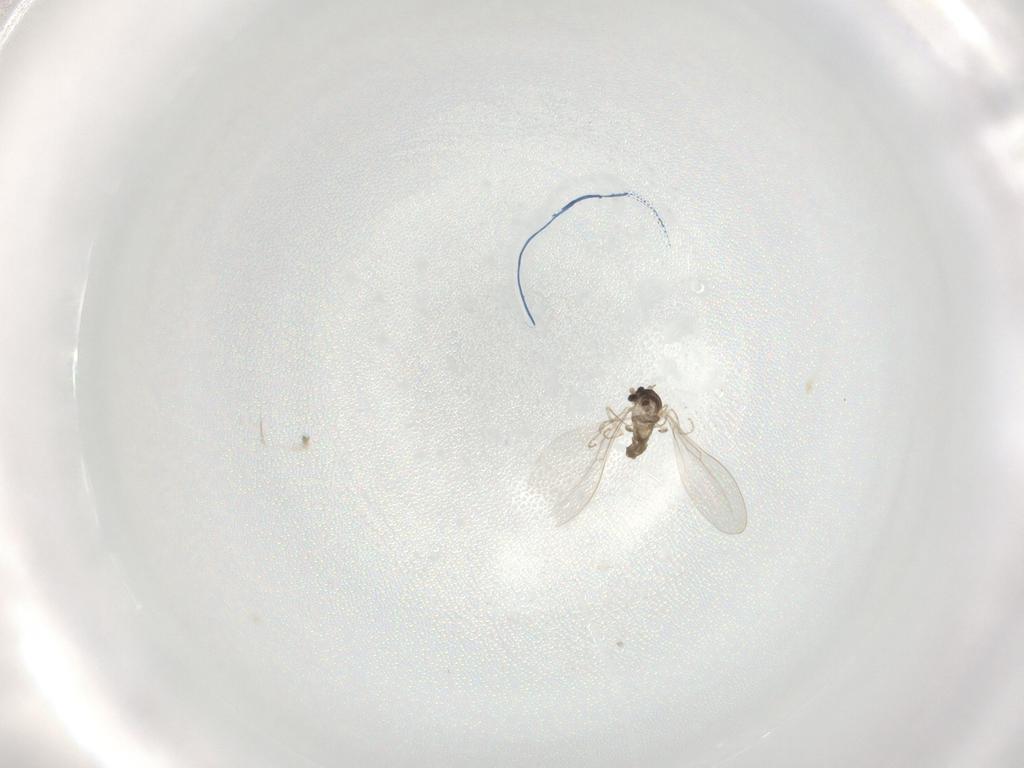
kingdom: Animalia
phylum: Arthropoda
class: Insecta
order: Diptera
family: Cecidomyiidae
